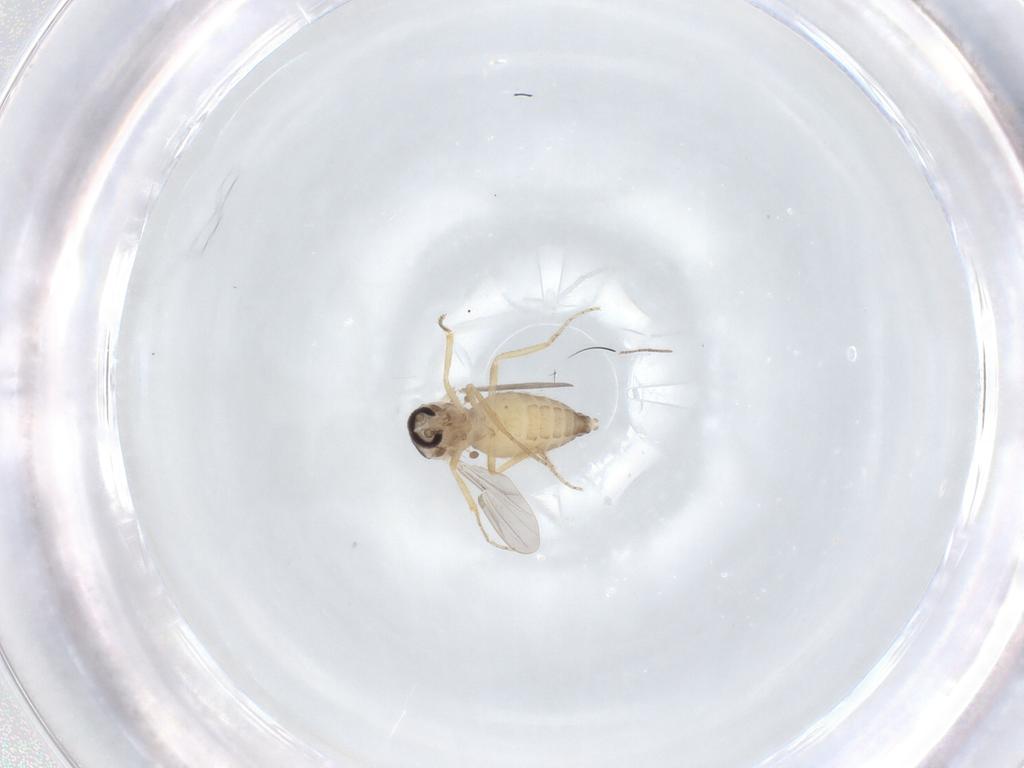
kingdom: Animalia
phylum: Arthropoda
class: Insecta
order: Diptera
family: Ceratopogonidae
